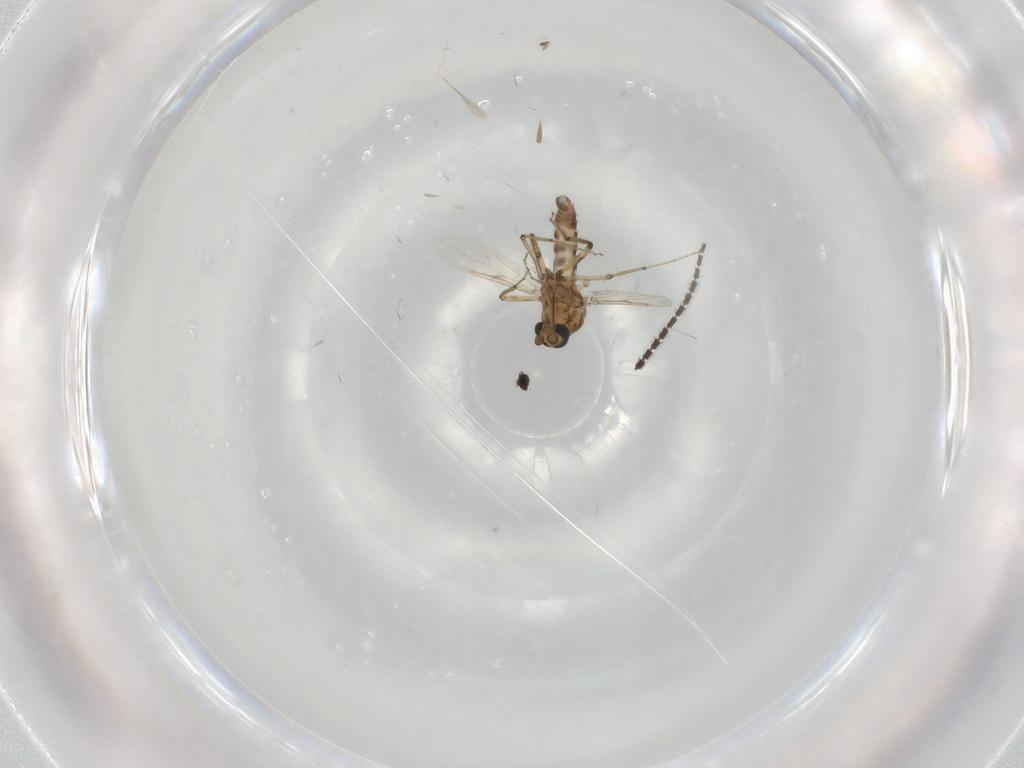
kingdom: Animalia
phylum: Arthropoda
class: Insecta
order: Diptera
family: Ceratopogonidae
